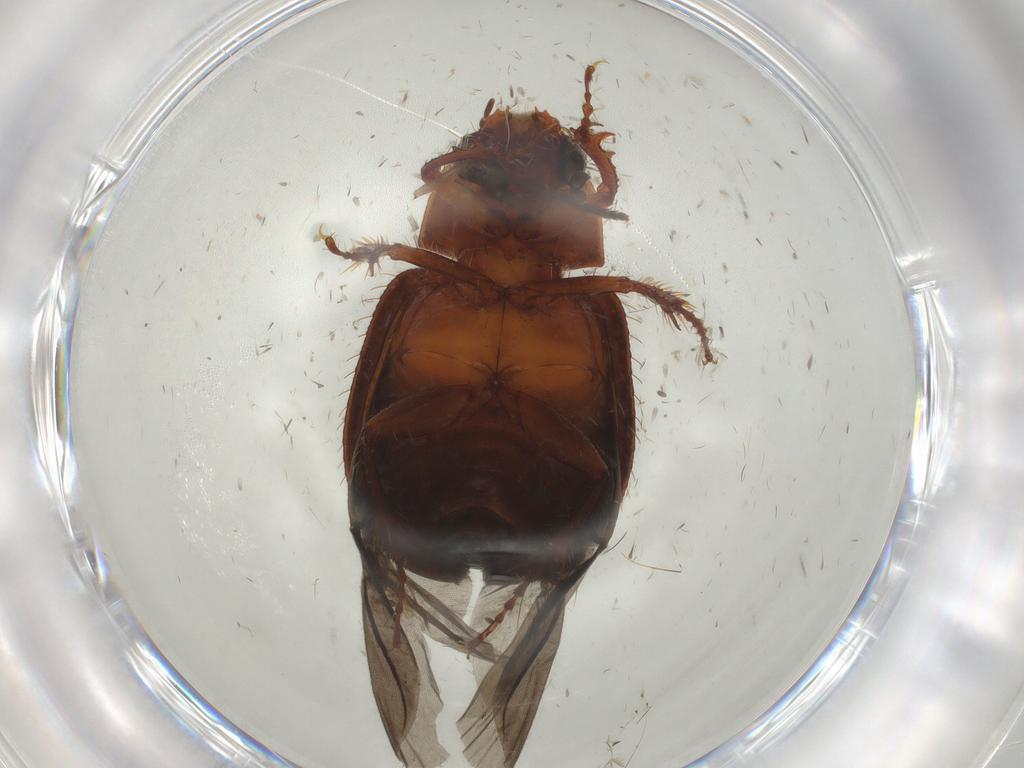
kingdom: Animalia
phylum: Arthropoda
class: Insecta
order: Coleoptera
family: Hybosoridae
